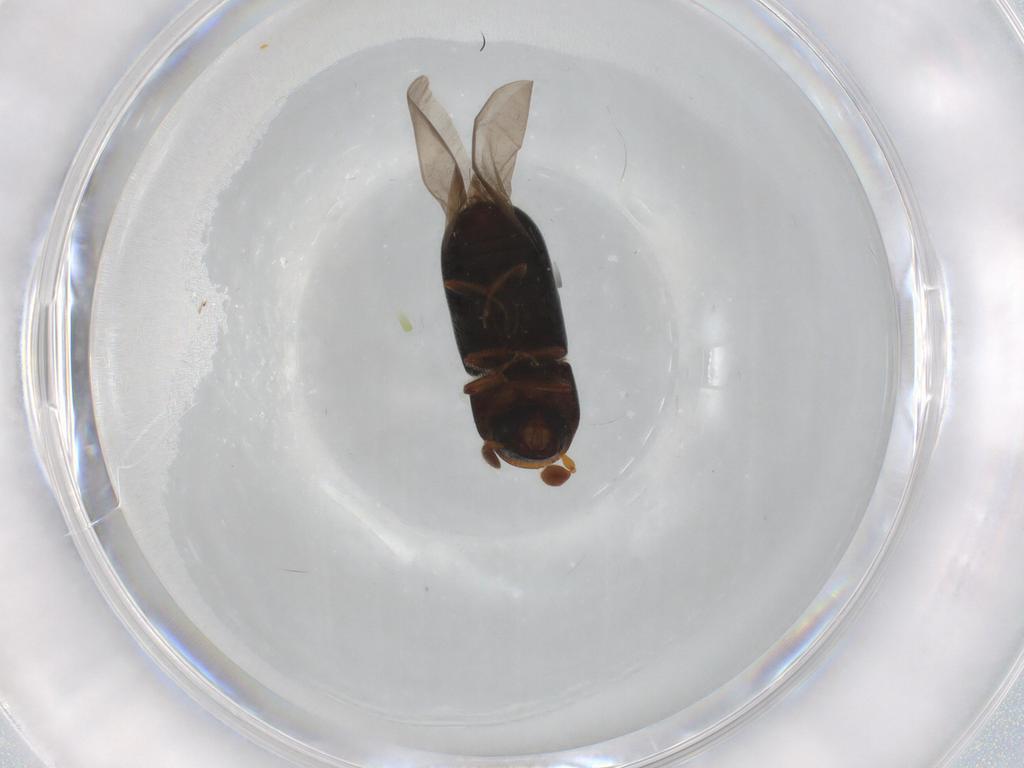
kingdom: Animalia
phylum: Arthropoda
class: Insecta
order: Coleoptera
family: Curculionidae
